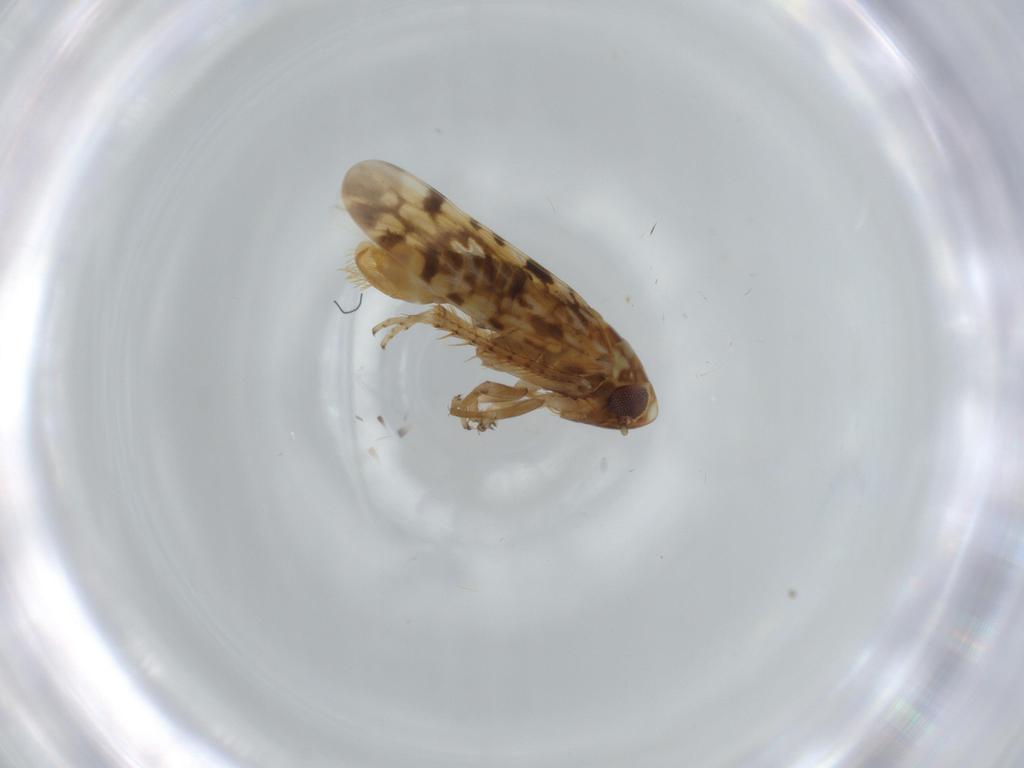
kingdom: Animalia
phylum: Arthropoda
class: Insecta
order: Hemiptera
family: Cicadellidae
